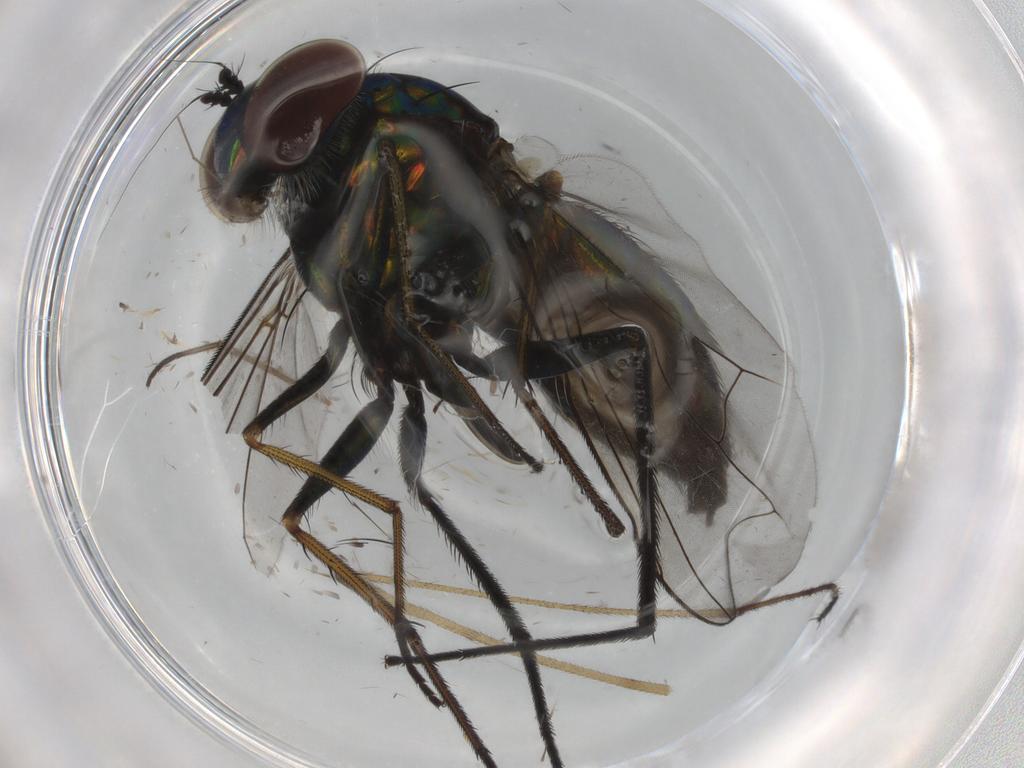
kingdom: Animalia
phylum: Arthropoda
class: Insecta
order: Diptera
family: Dolichopodidae
